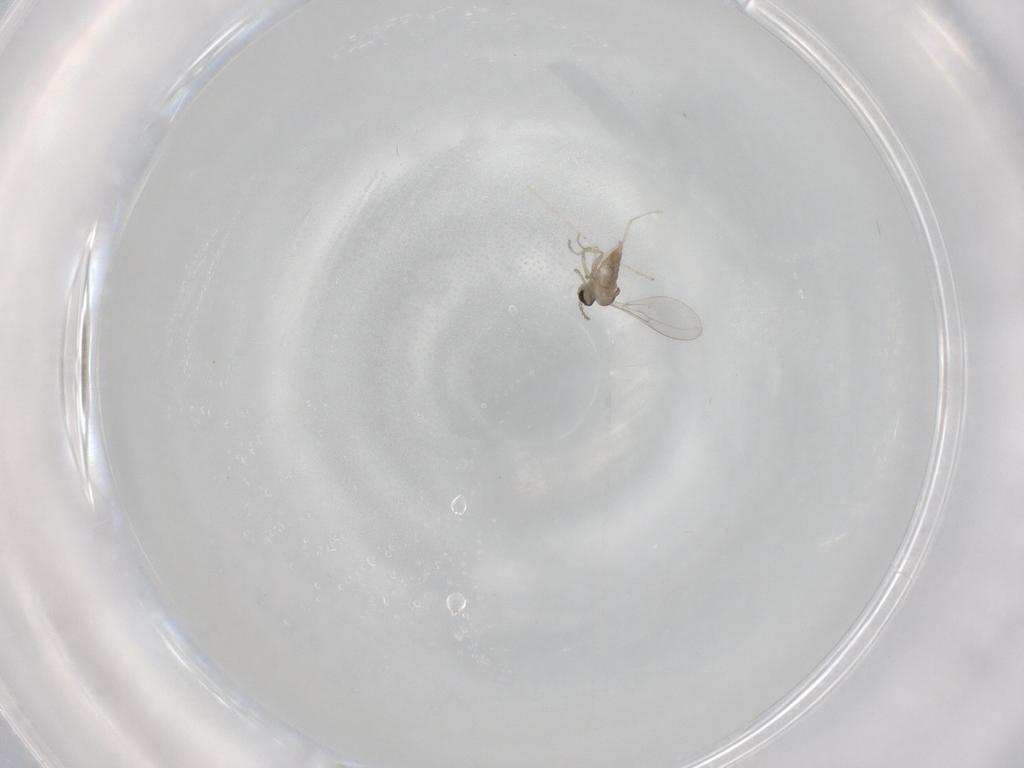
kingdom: Animalia
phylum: Arthropoda
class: Insecta
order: Diptera
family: Cecidomyiidae
